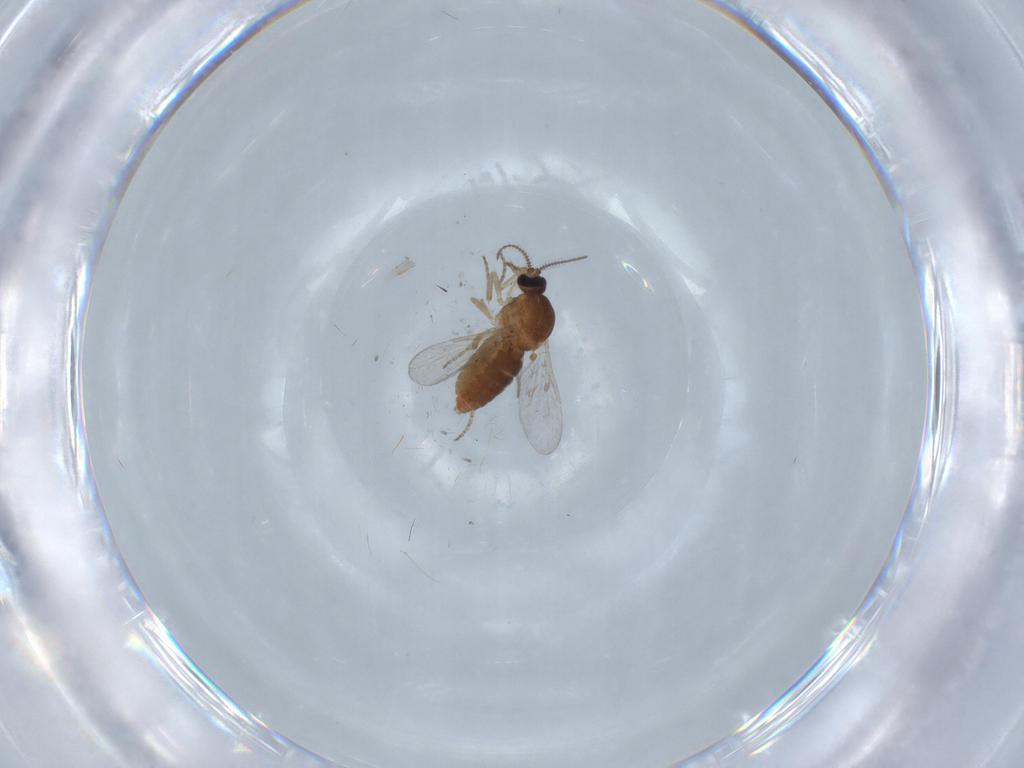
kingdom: Animalia
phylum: Arthropoda
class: Insecta
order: Diptera
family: Ceratopogonidae
